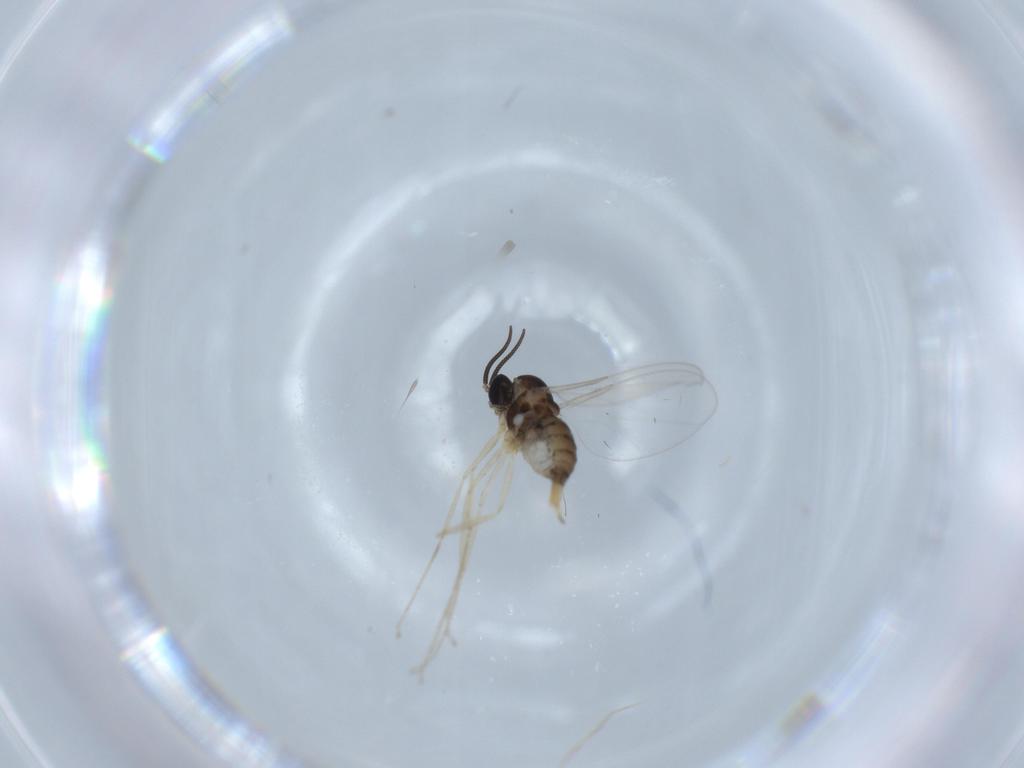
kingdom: Animalia
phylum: Arthropoda
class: Insecta
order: Diptera
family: Cecidomyiidae
